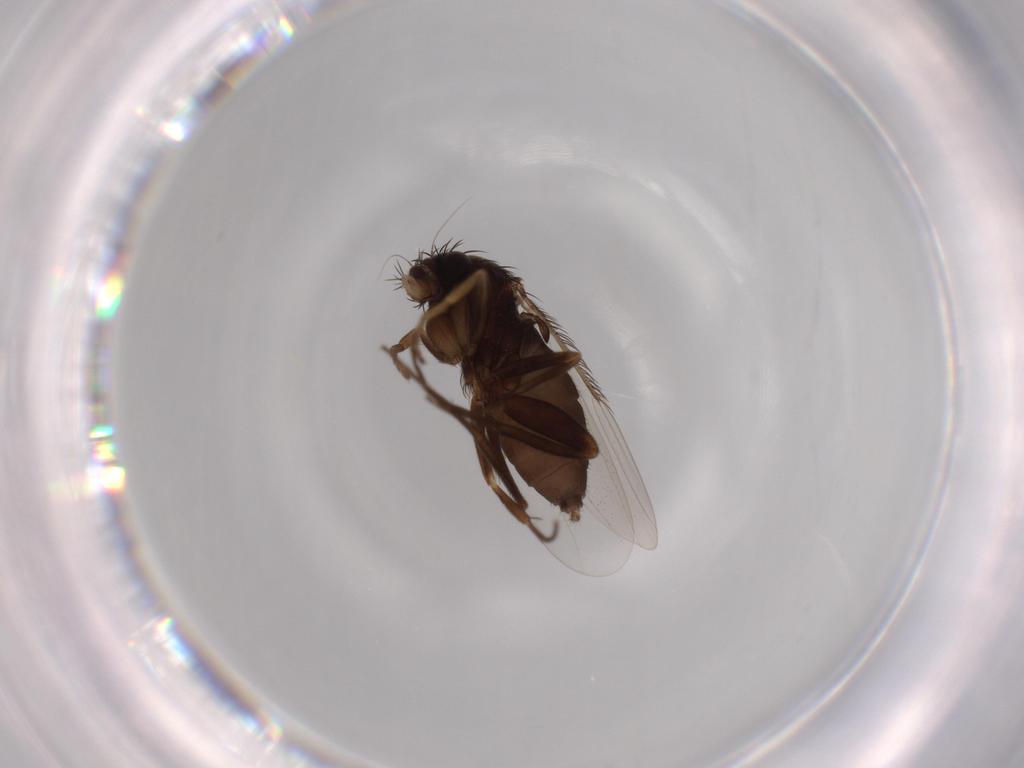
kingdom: Animalia
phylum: Arthropoda
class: Insecta
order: Diptera
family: Phoridae
